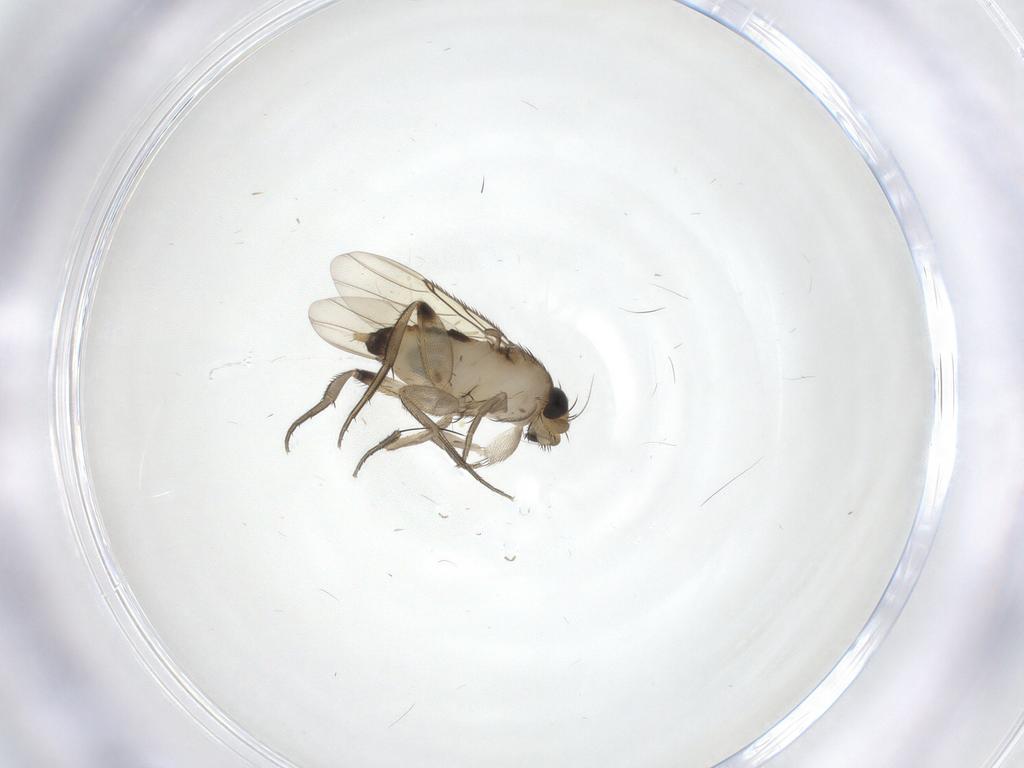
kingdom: Animalia
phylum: Arthropoda
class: Insecta
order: Diptera
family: Phoridae
